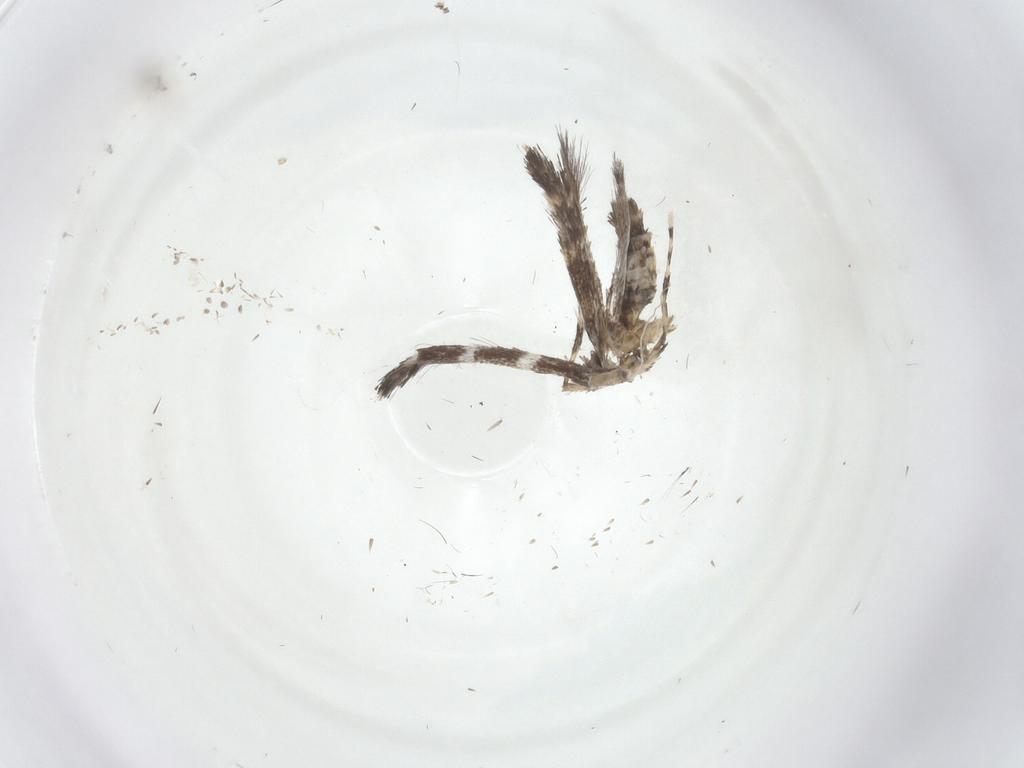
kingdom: Animalia
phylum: Arthropoda
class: Insecta
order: Lepidoptera
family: Gracillariidae
